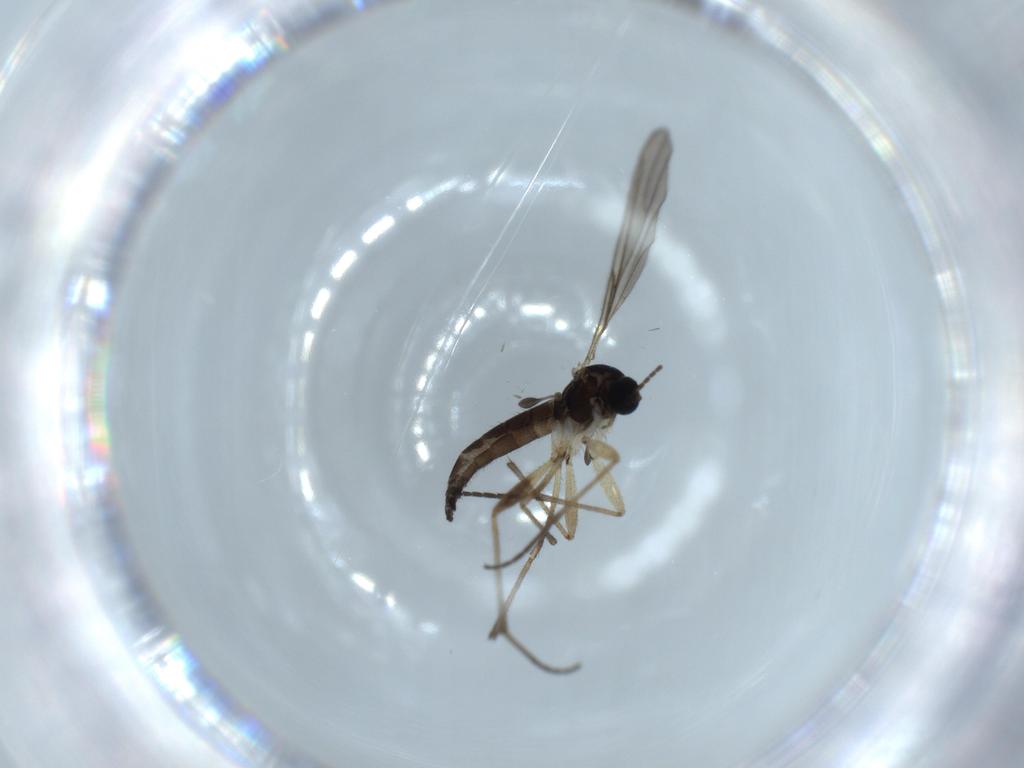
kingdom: Animalia
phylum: Arthropoda
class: Insecta
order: Diptera
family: Sciaridae
